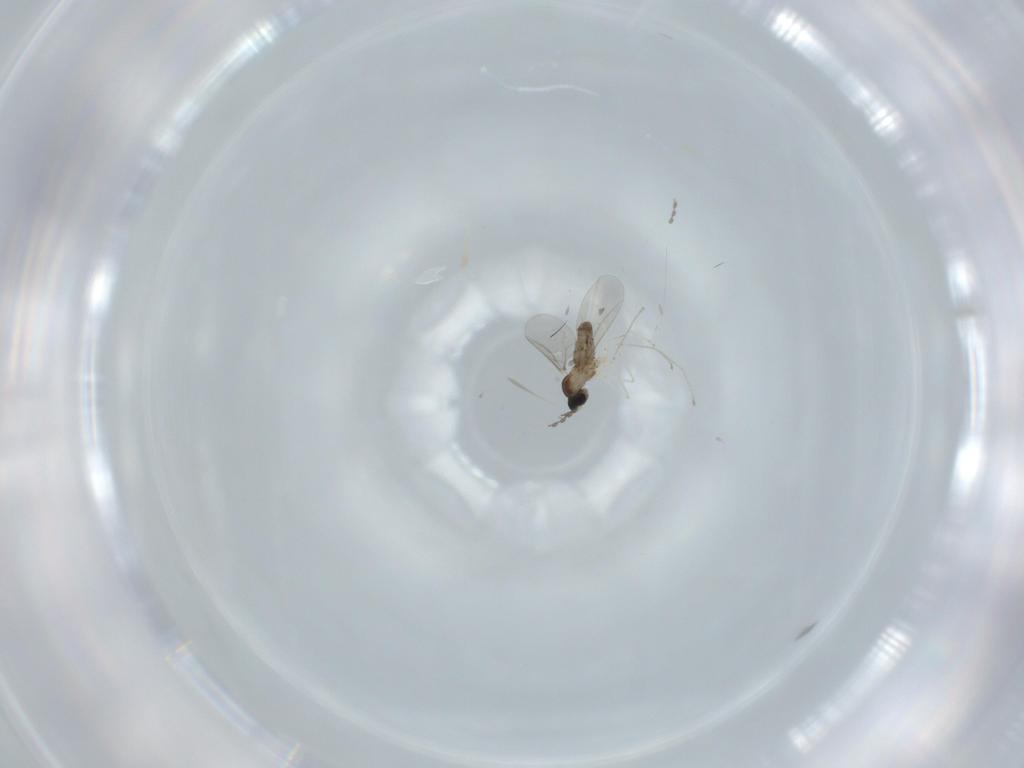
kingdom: Animalia
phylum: Arthropoda
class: Insecta
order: Diptera
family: Cecidomyiidae
